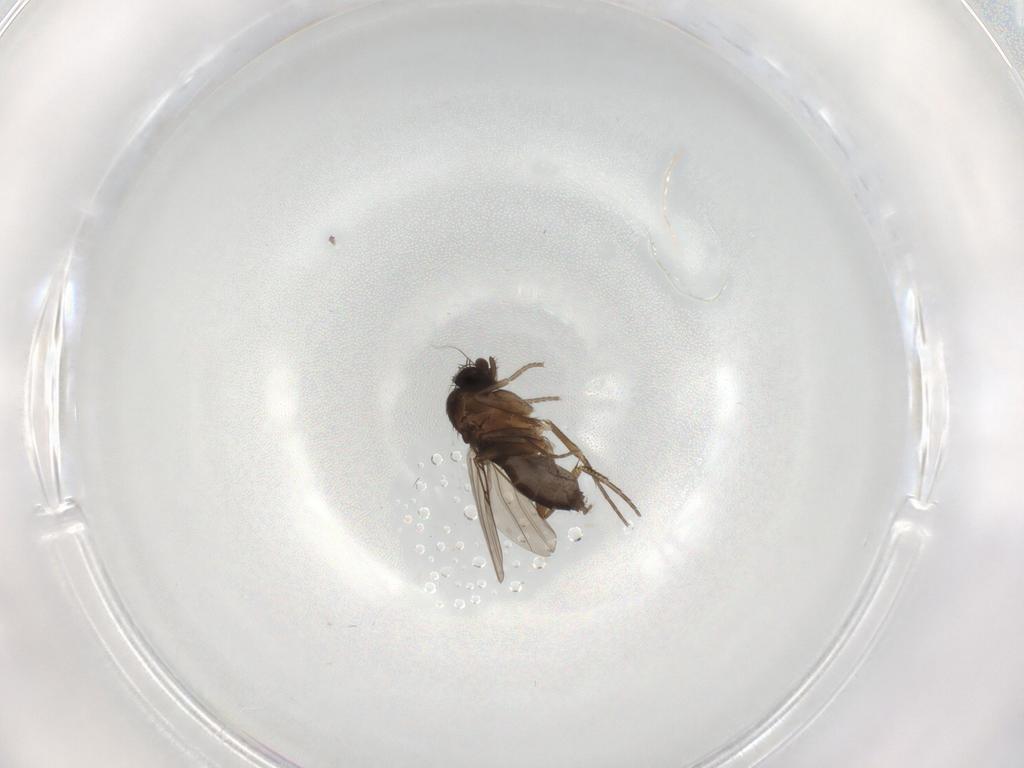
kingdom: Animalia
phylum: Arthropoda
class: Insecta
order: Diptera
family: Phoridae
